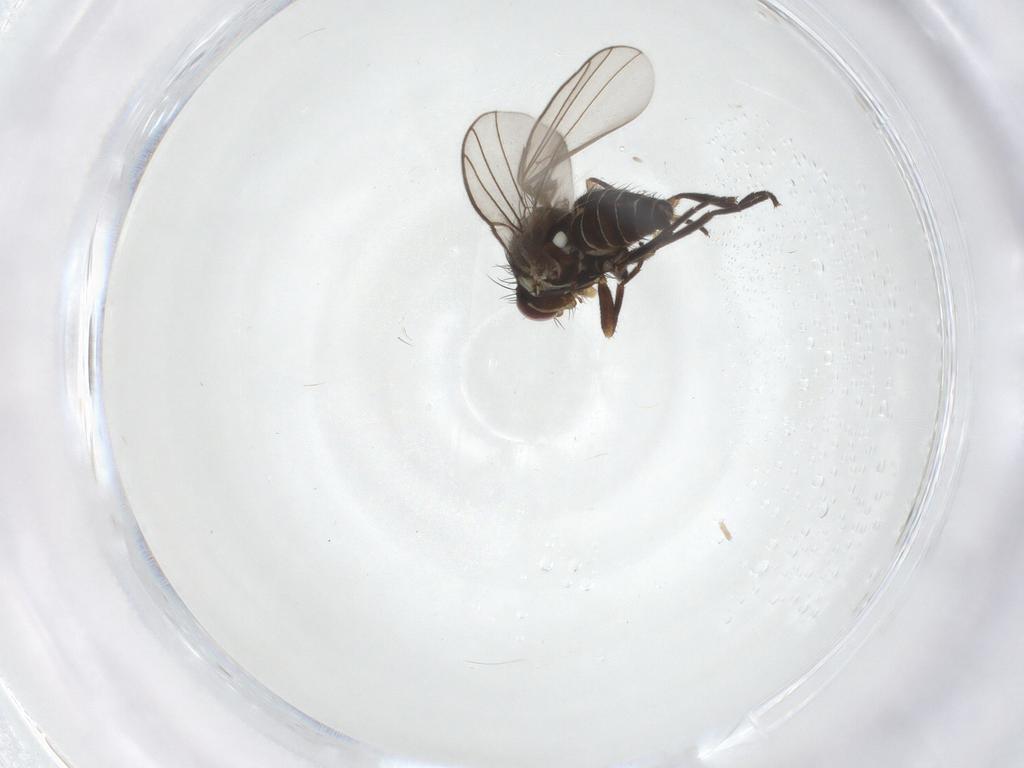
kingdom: Animalia
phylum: Arthropoda
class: Insecta
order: Diptera
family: Agromyzidae
